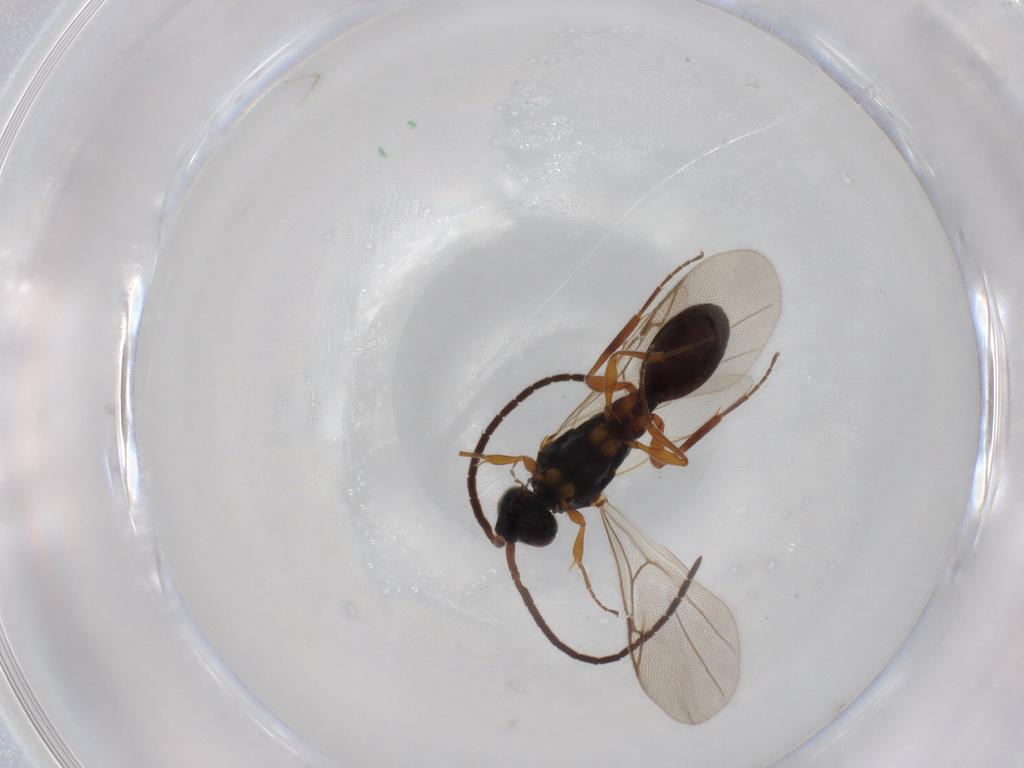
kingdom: Animalia
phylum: Arthropoda
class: Insecta
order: Hymenoptera
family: Vespidae
